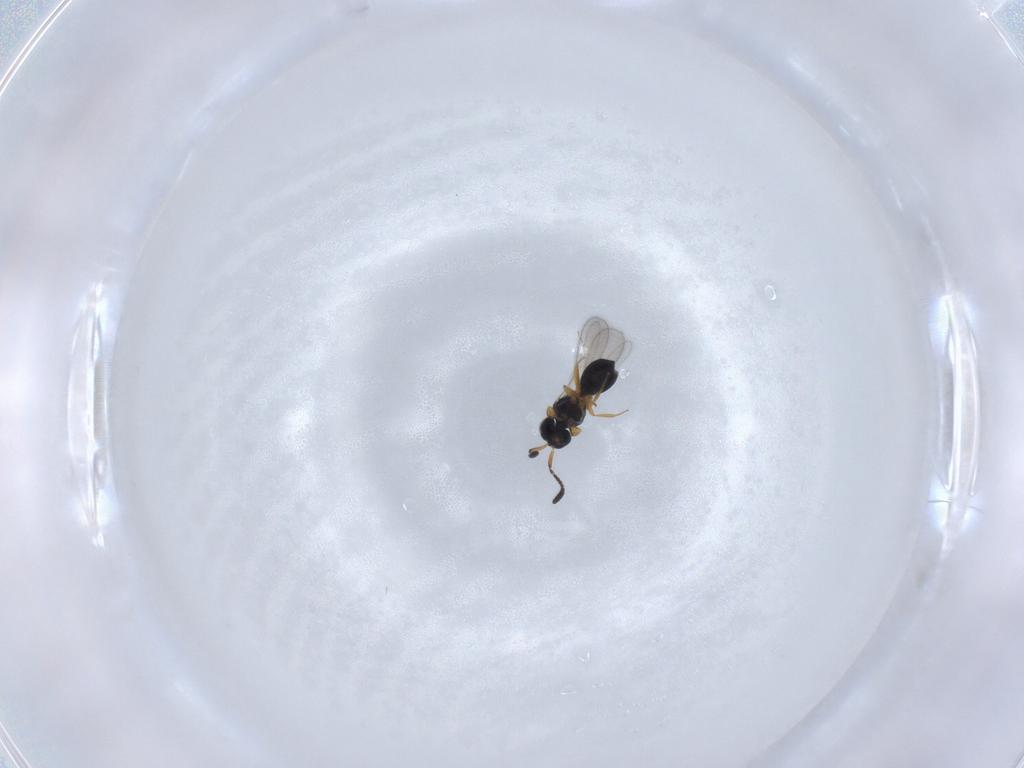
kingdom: Animalia
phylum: Arthropoda
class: Insecta
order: Hymenoptera
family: Scelionidae
